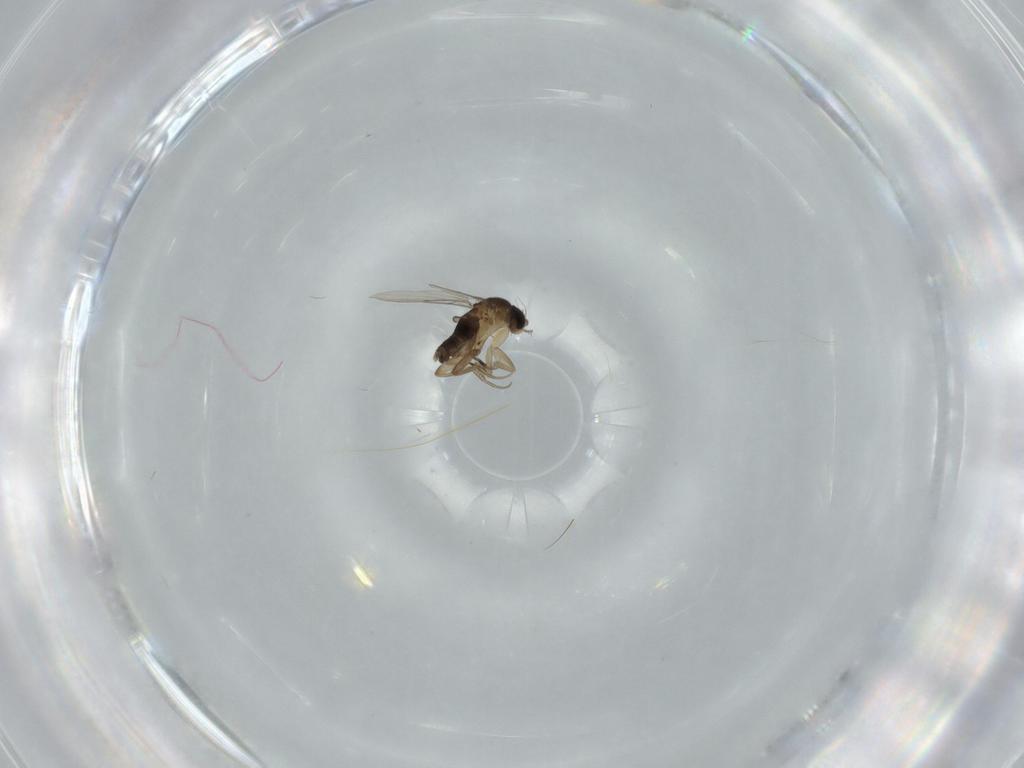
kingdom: Animalia
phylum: Arthropoda
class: Insecta
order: Diptera
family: Phoridae
